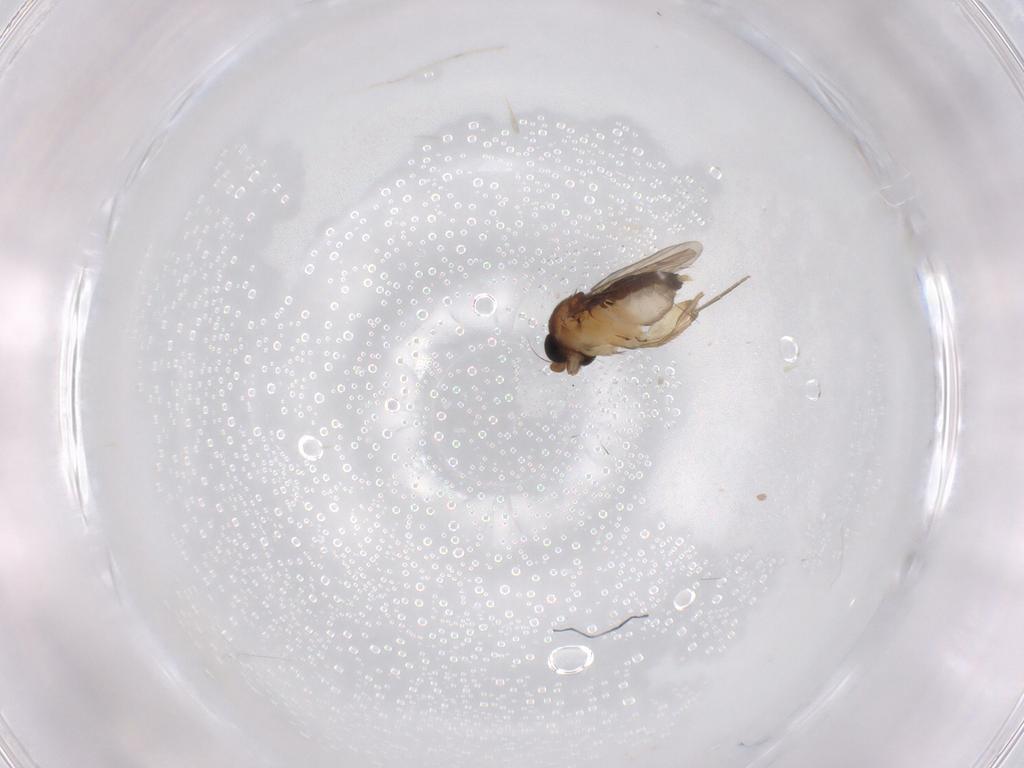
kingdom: Animalia
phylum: Arthropoda
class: Insecta
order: Diptera
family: Phoridae
